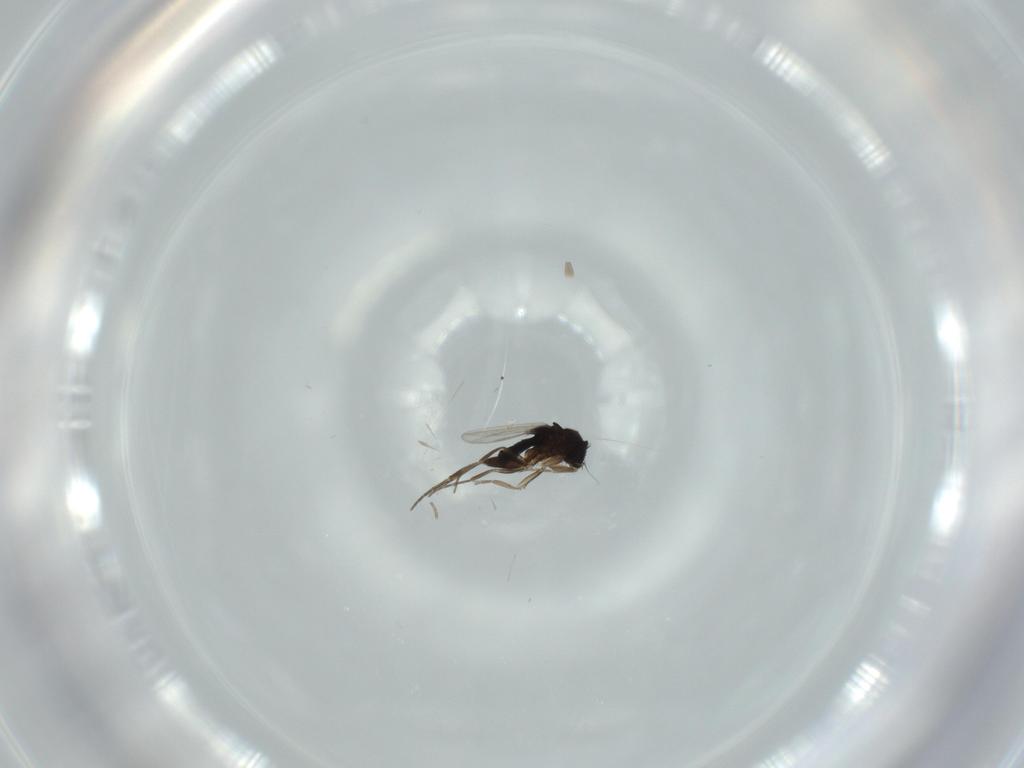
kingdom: Animalia
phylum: Arthropoda
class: Insecta
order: Diptera
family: Phoridae
